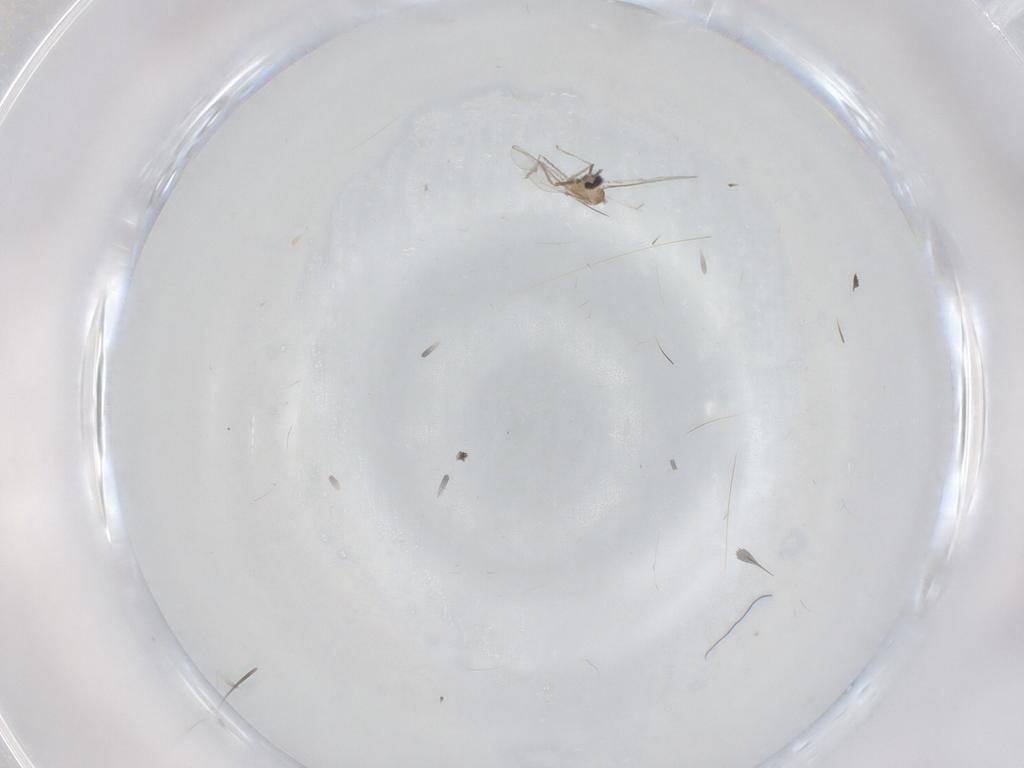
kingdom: Animalia
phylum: Arthropoda
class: Insecta
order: Diptera
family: Cecidomyiidae
